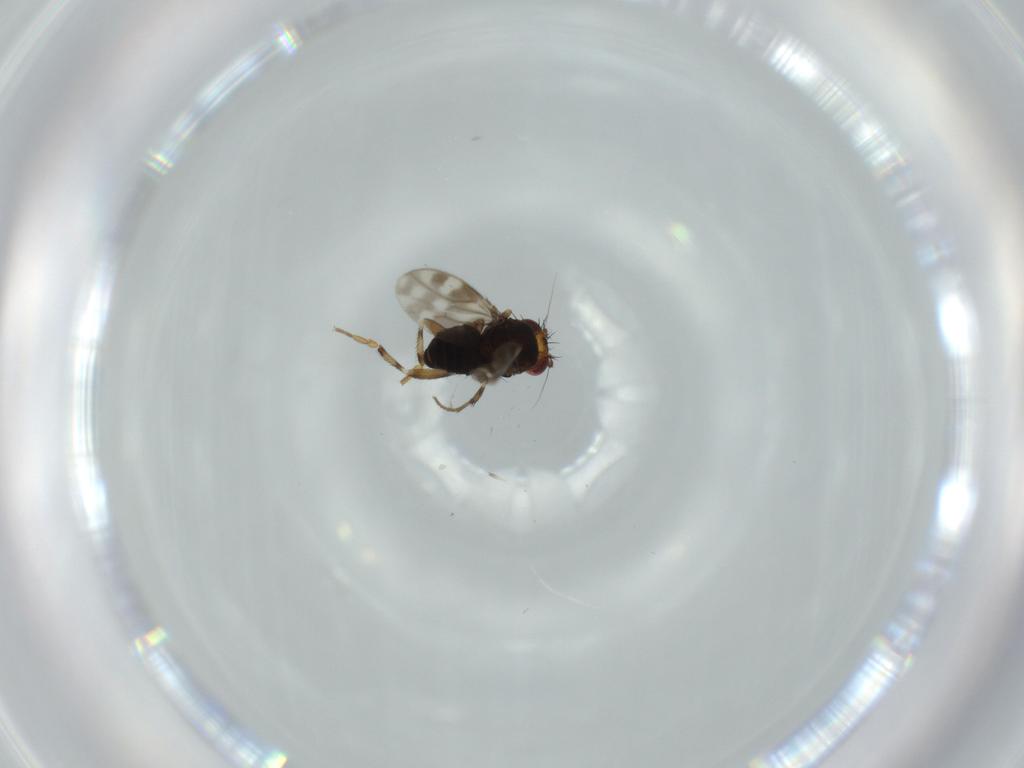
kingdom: Animalia
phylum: Arthropoda
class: Insecta
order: Diptera
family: Sphaeroceridae
